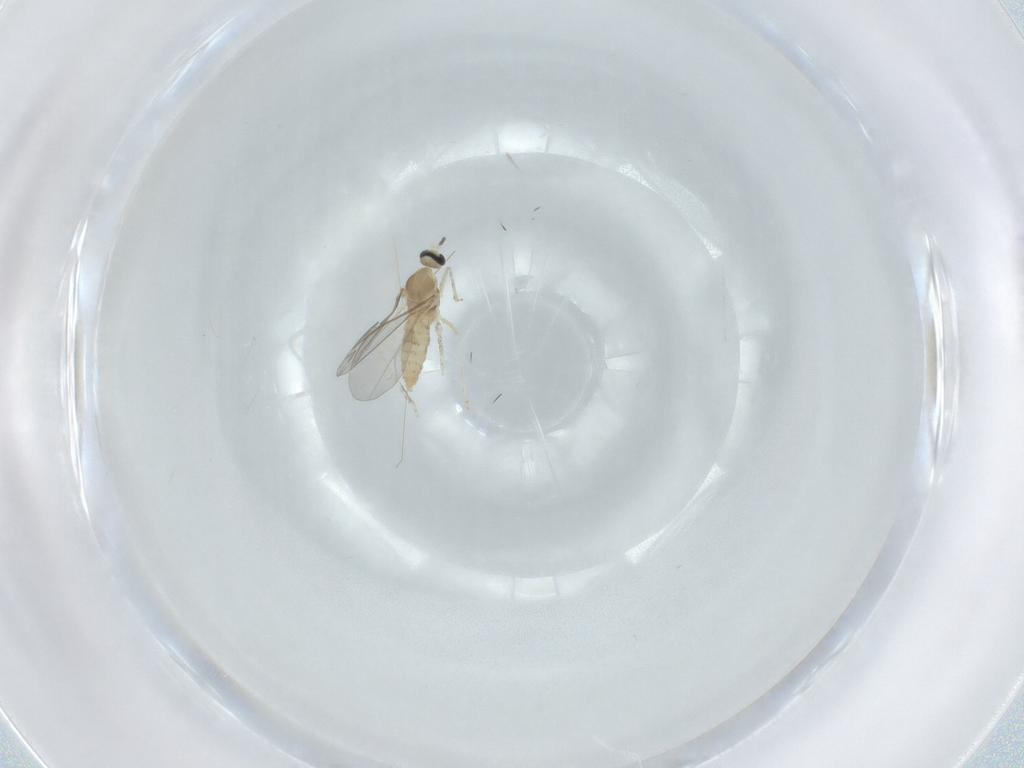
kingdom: Animalia
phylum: Arthropoda
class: Insecta
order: Diptera
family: Cecidomyiidae
